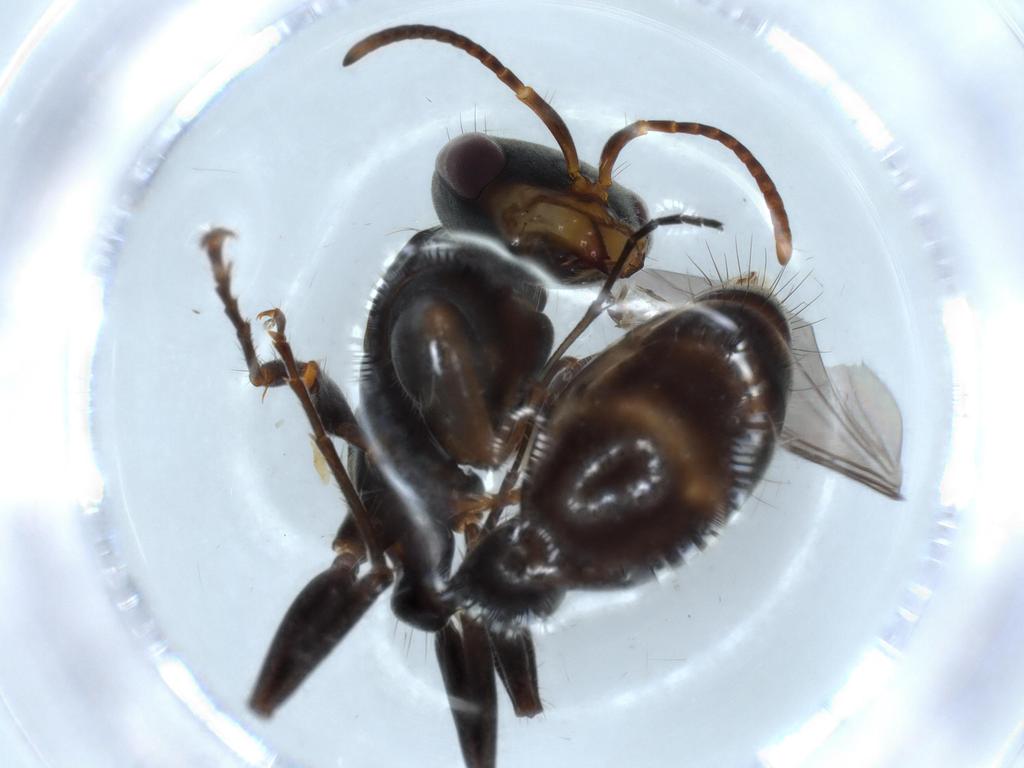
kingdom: Animalia
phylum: Arthropoda
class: Insecta
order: Hymenoptera
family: Formicidae
